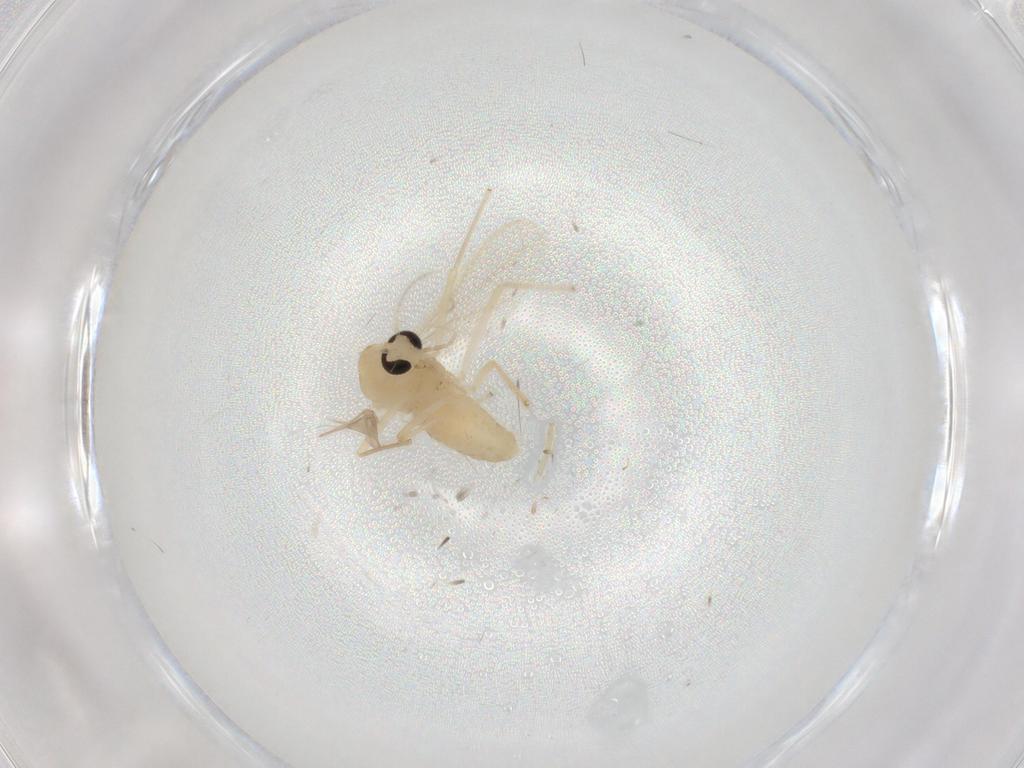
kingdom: Animalia
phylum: Arthropoda
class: Insecta
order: Diptera
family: Chironomidae
